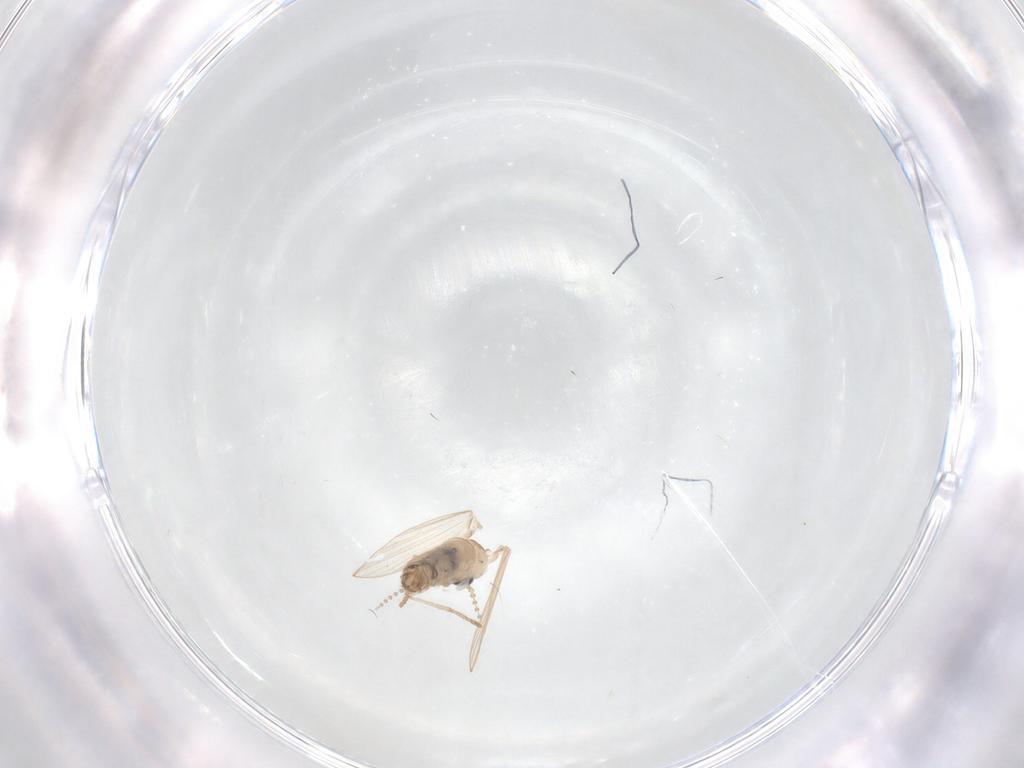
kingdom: Animalia
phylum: Arthropoda
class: Insecta
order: Diptera
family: Psychodidae
